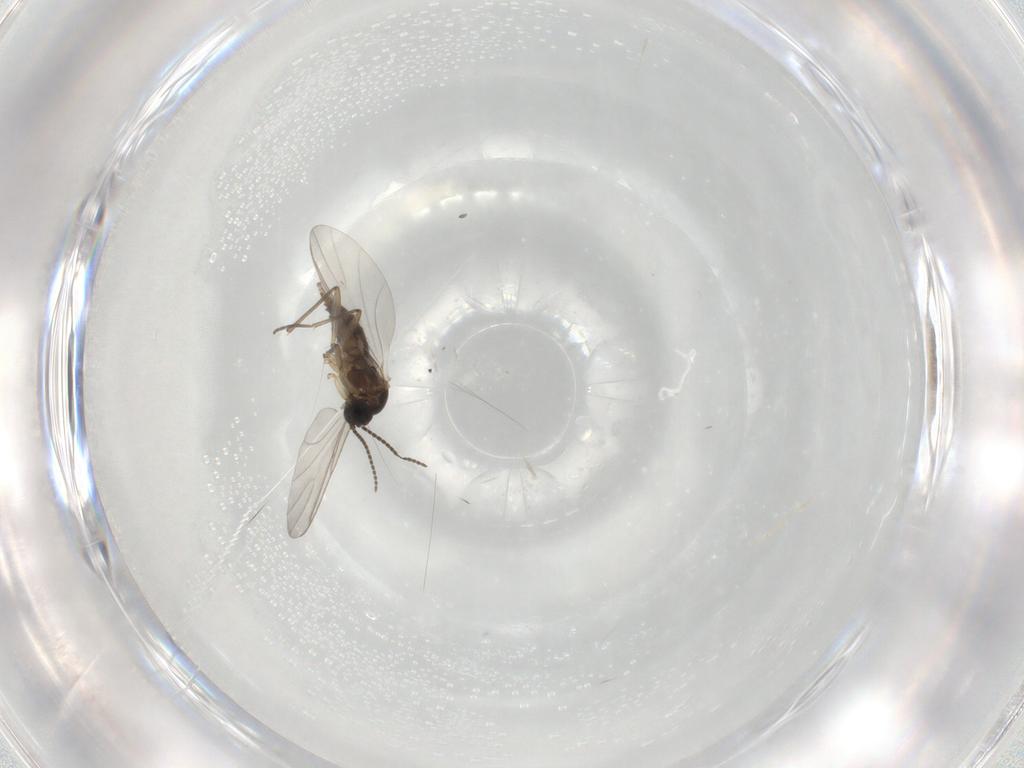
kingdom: Animalia
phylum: Arthropoda
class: Insecta
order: Diptera
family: Sciaridae
